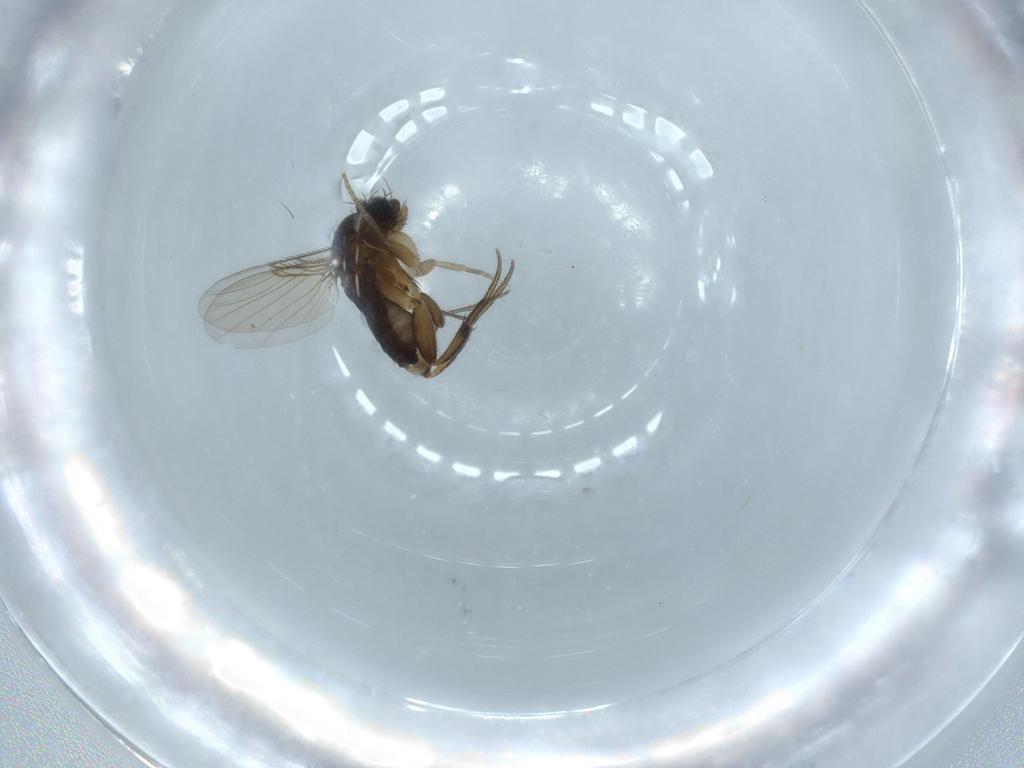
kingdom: Animalia
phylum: Arthropoda
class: Insecta
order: Diptera
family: Phoridae
